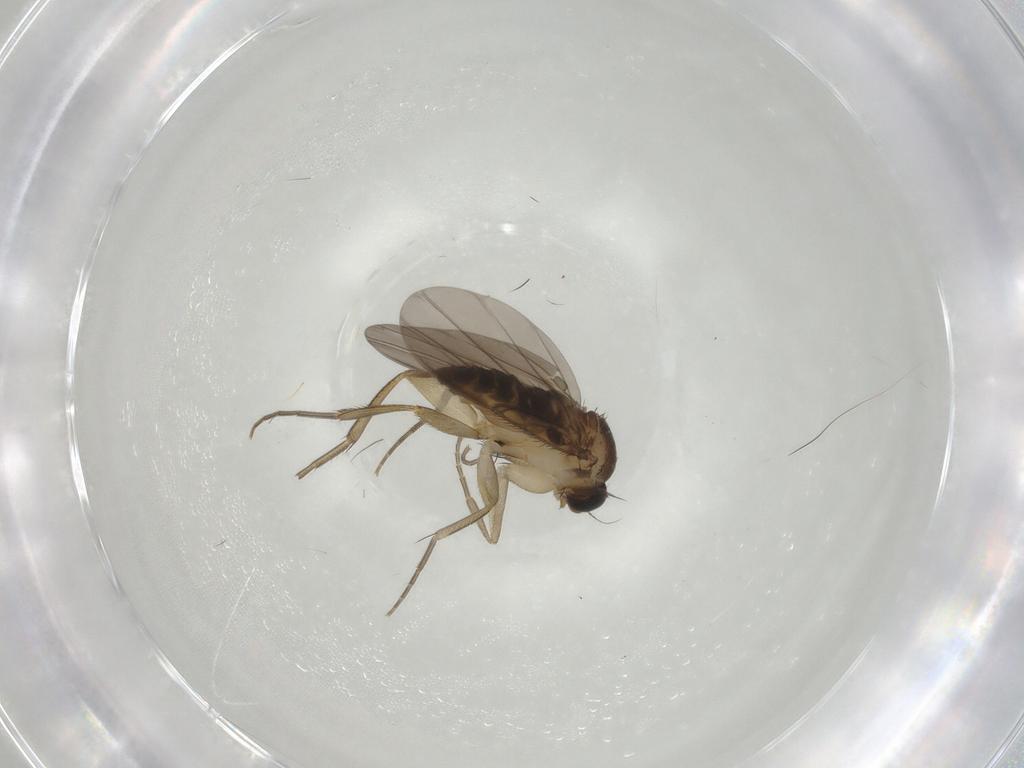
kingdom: Animalia
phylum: Arthropoda
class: Insecta
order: Diptera
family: Phoridae
